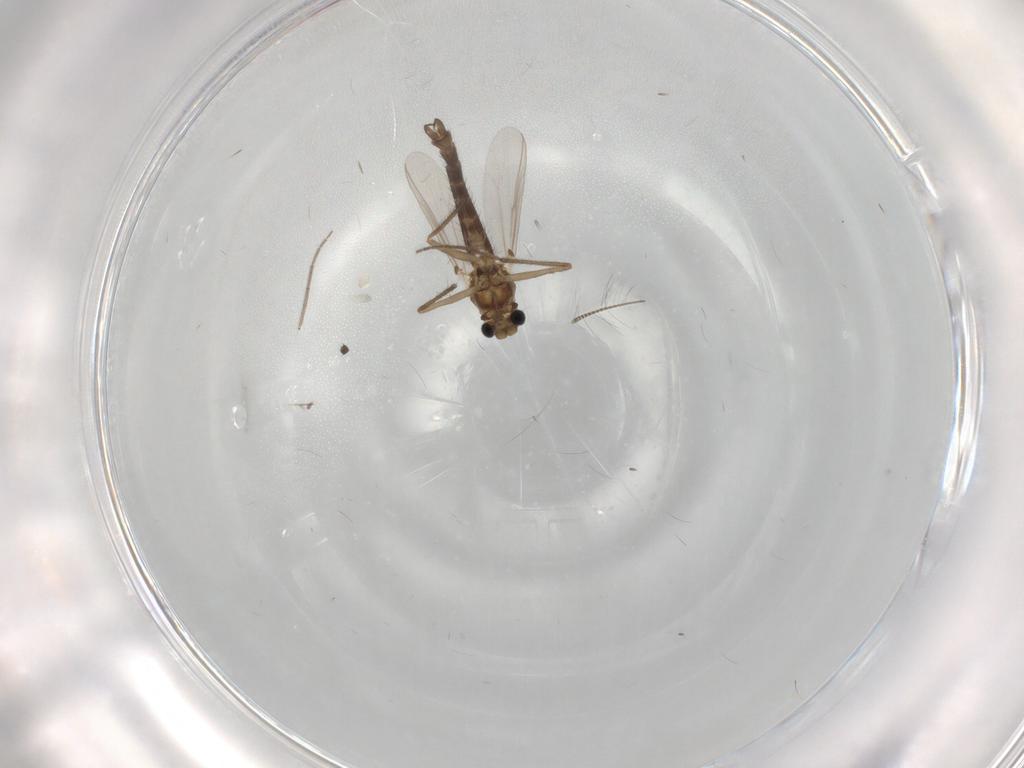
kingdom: Animalia
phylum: Arthropoda
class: Insecta
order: Diptera
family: Chironomidae
